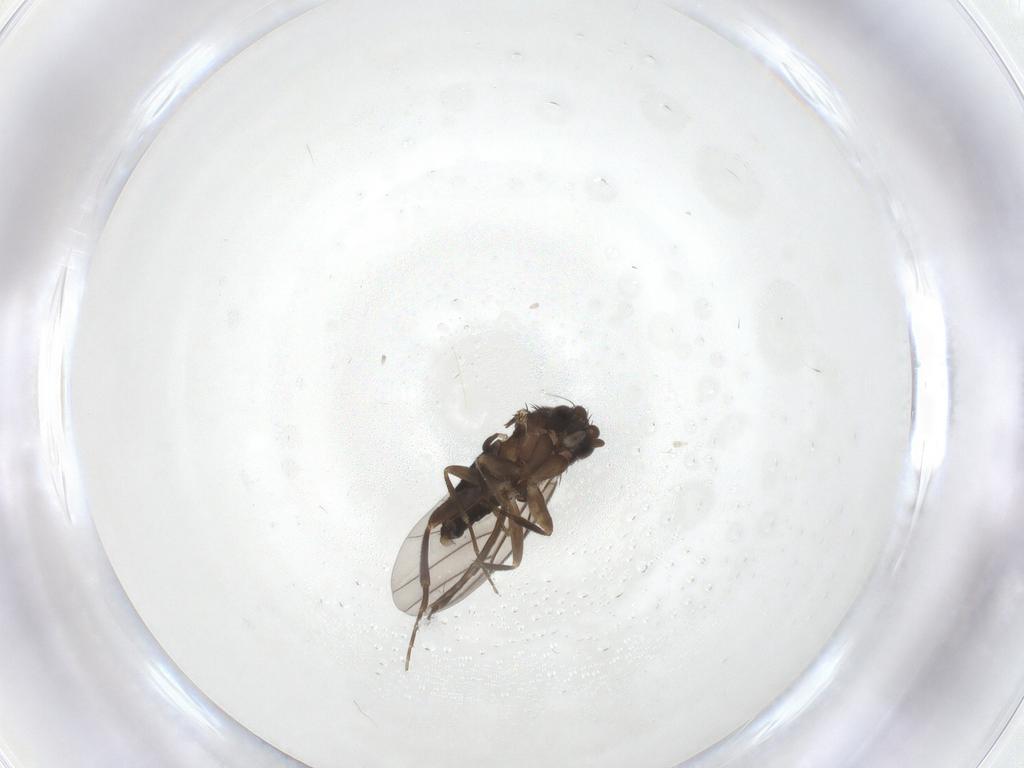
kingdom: Animalia
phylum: Arthropoda
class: Insecta
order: Diptera
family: Phoridae
